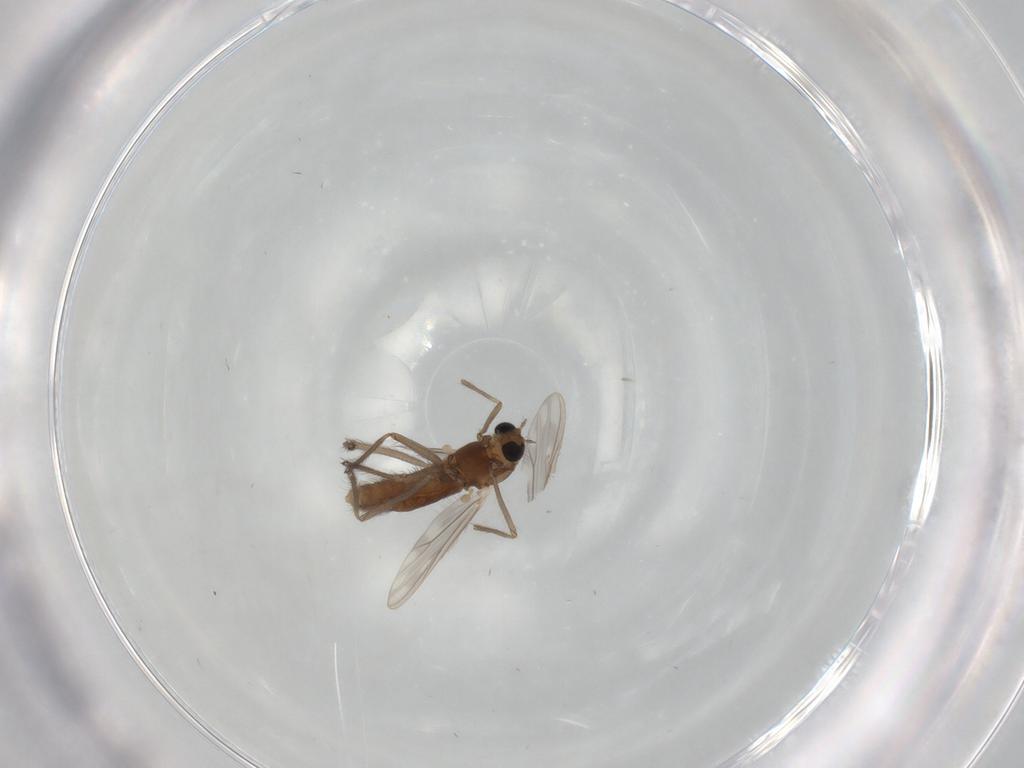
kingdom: Animalia
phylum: Arthropoda
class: Insecta
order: Diptera
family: Chironomidae
